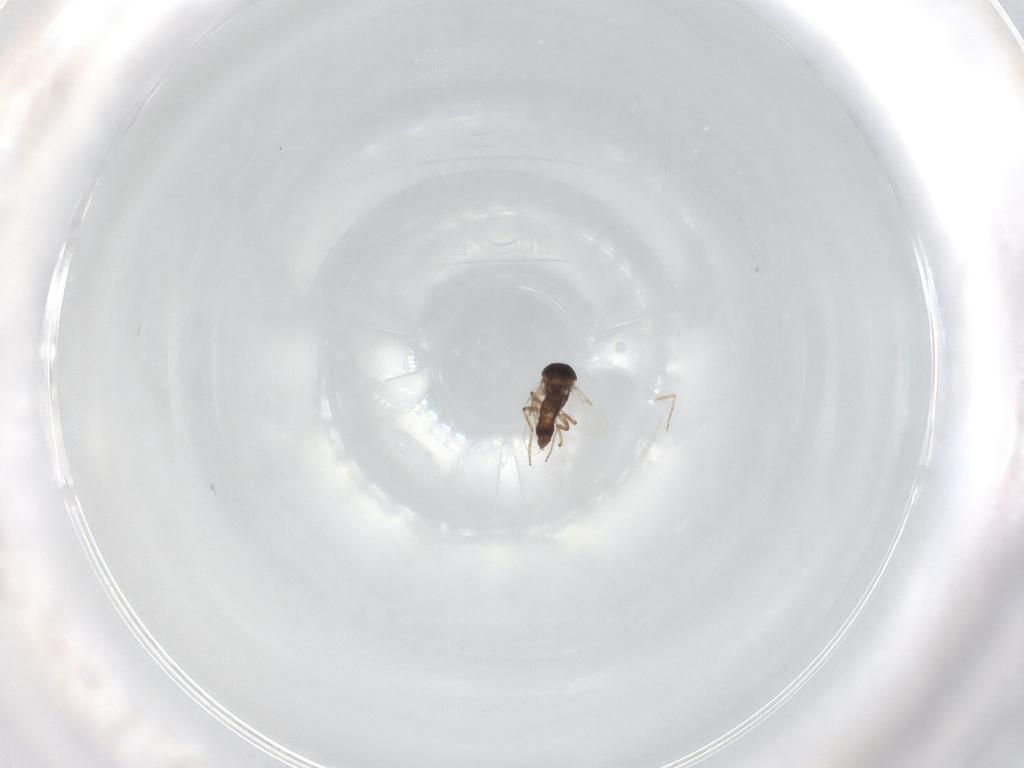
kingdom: Animalia
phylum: Arthropoda
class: Insecta
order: Diptera
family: Ceratopogonidae
